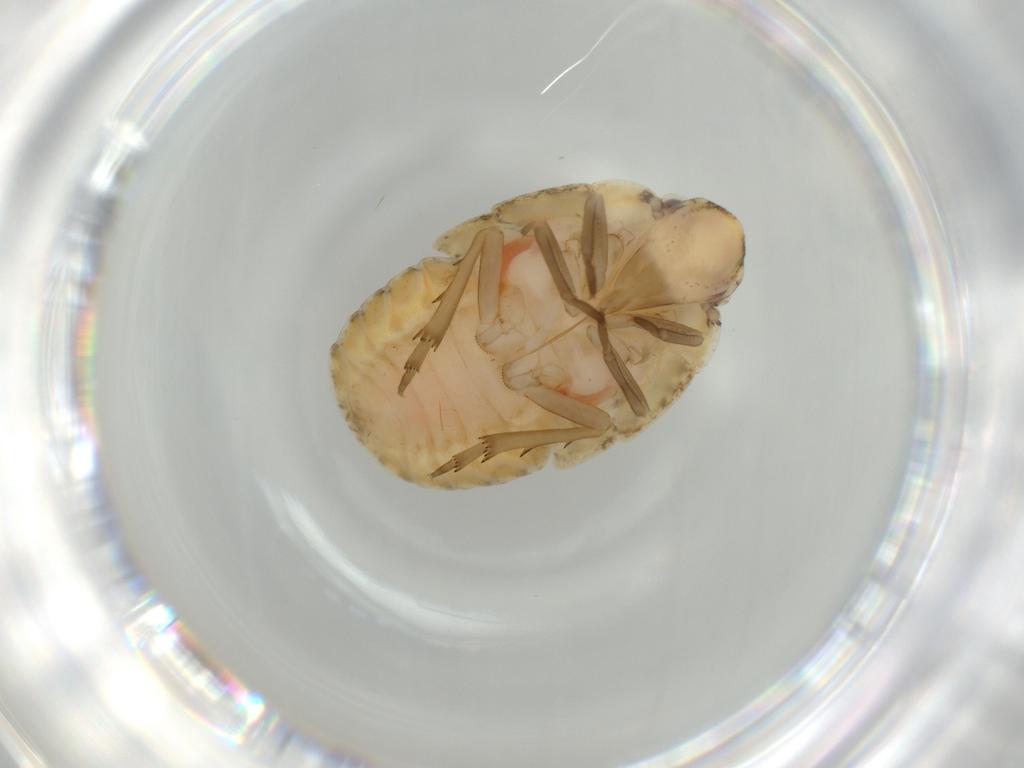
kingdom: Animalia
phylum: Arthropoda
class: Insecta
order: Hemiptera
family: Flatidae
